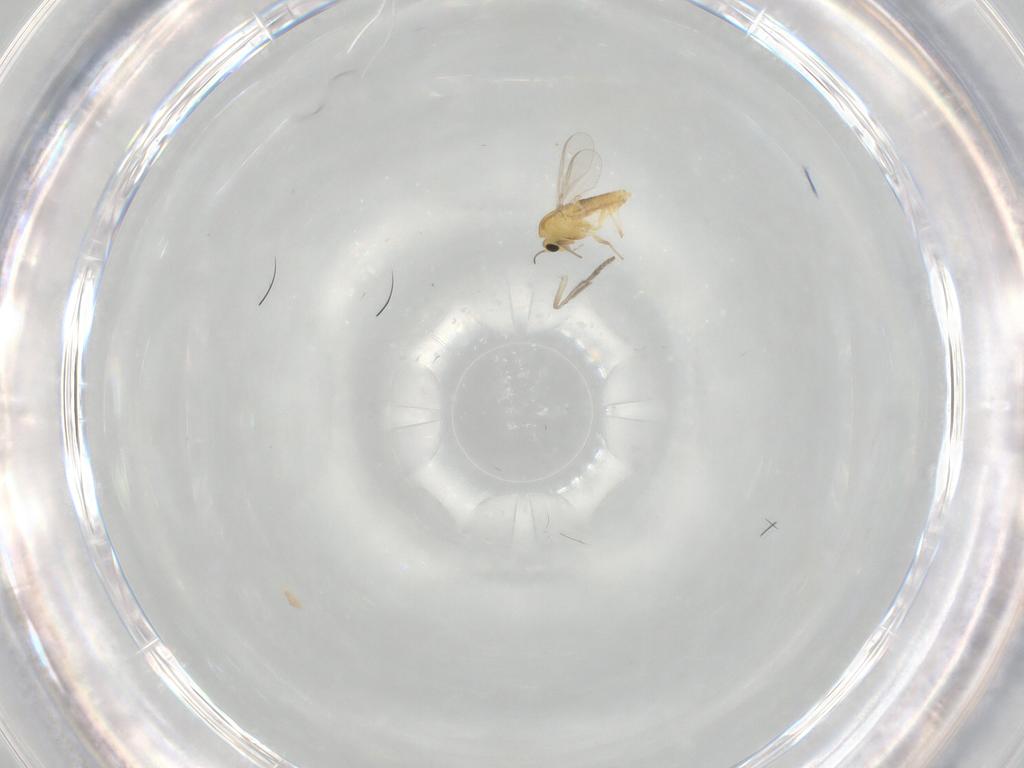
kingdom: Animalia
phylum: Arthropoda
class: Insecta
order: Diptera
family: Chironomidae
